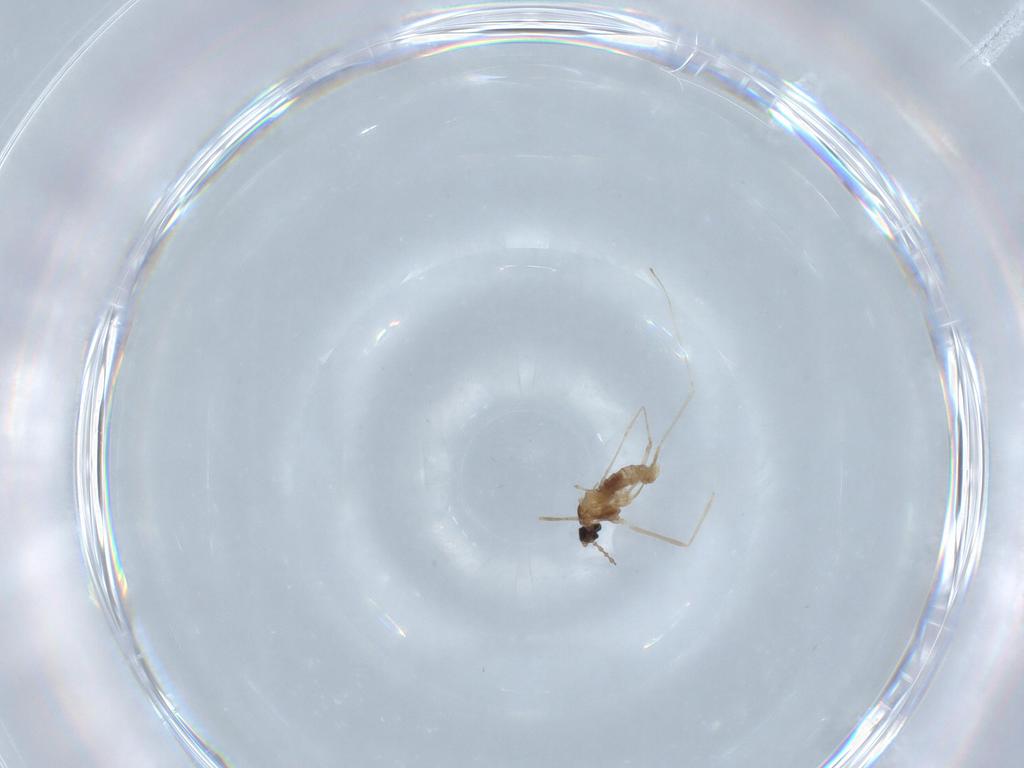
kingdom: Animalia
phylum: Arthropoda
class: Insecta
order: Diptera
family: Cecidomyiidae
